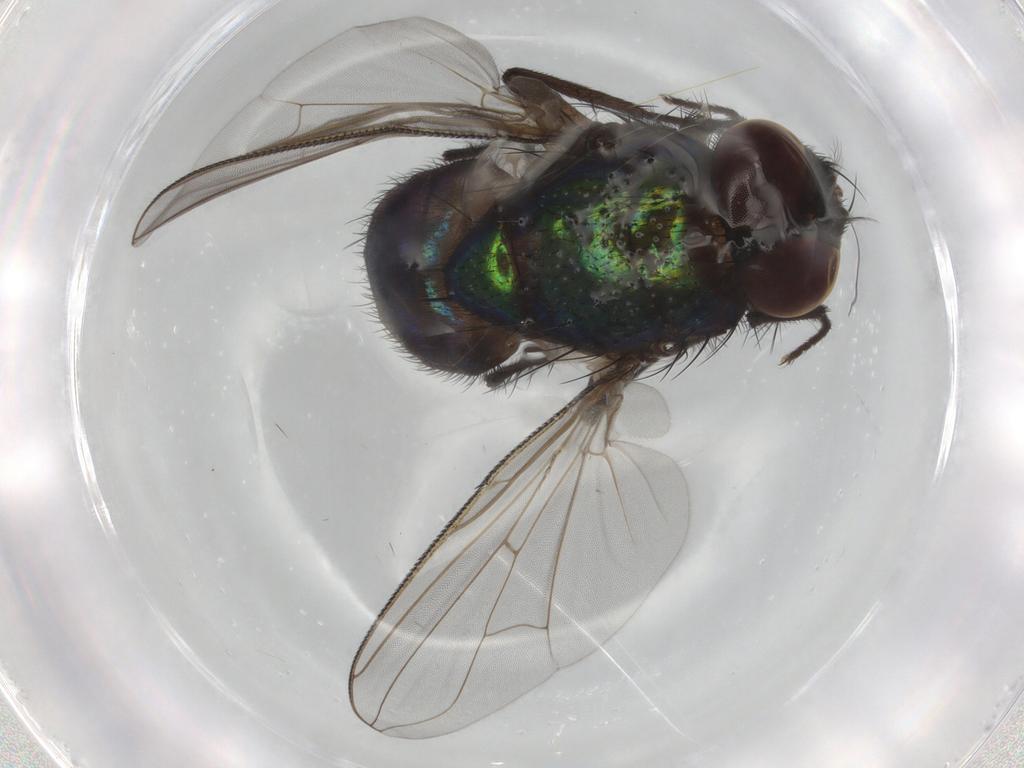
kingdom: Animalia
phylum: Arthropoda
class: Insecta
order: Diptera
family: Muscidae
